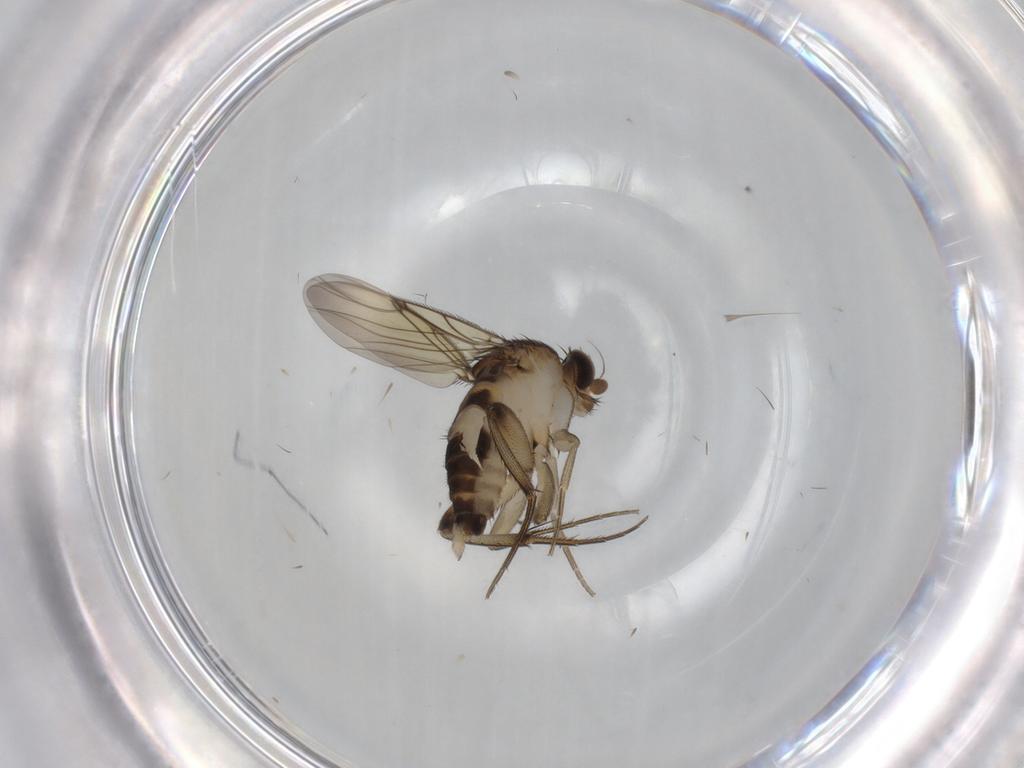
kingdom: Animalia
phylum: Arthropoda
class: Insecta
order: Diptera
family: Phoridae
